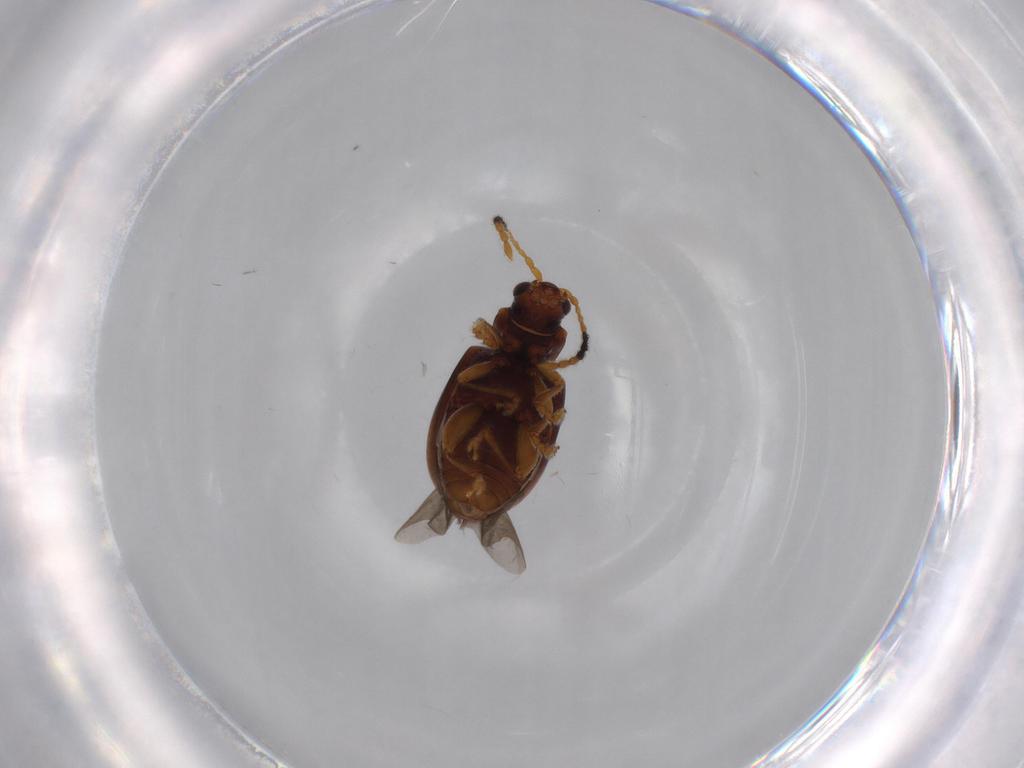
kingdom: Animalia
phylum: Arthropoda
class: Insecta
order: Coleoptera
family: Chrysomelidae
